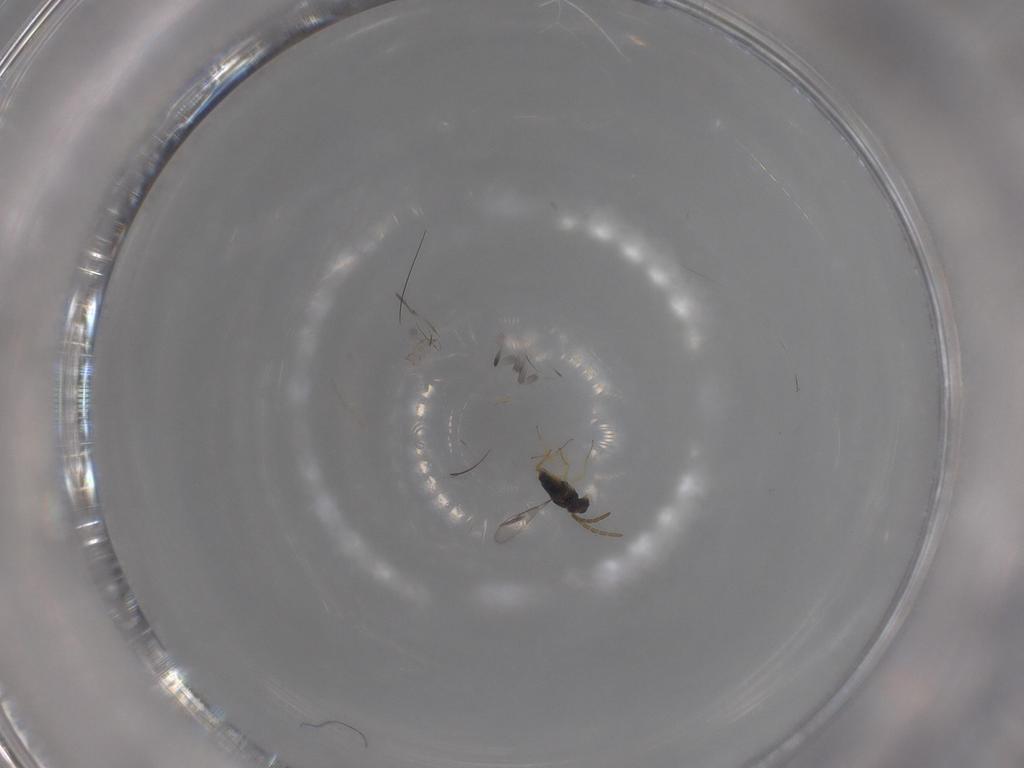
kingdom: Animalia
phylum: Arthropoda
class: Insecta
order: Hymenoptera
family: Aphelinidae
